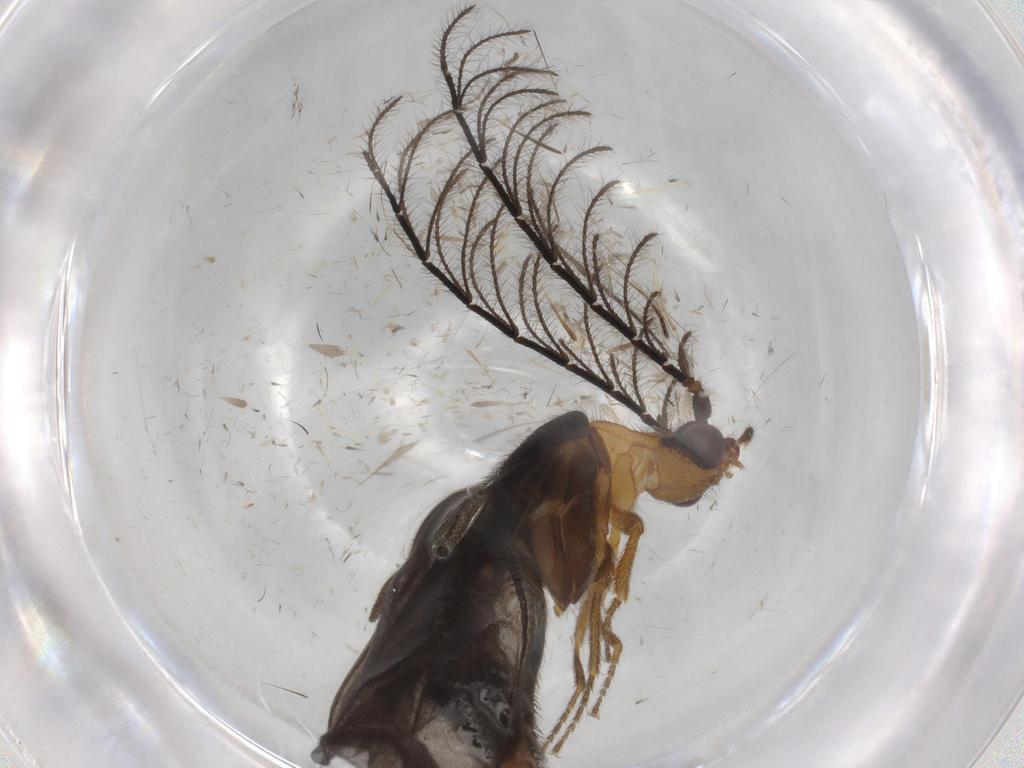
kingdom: Animalia
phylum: Arthropoda
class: Insecta
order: Coleoptera
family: Phengodidae
